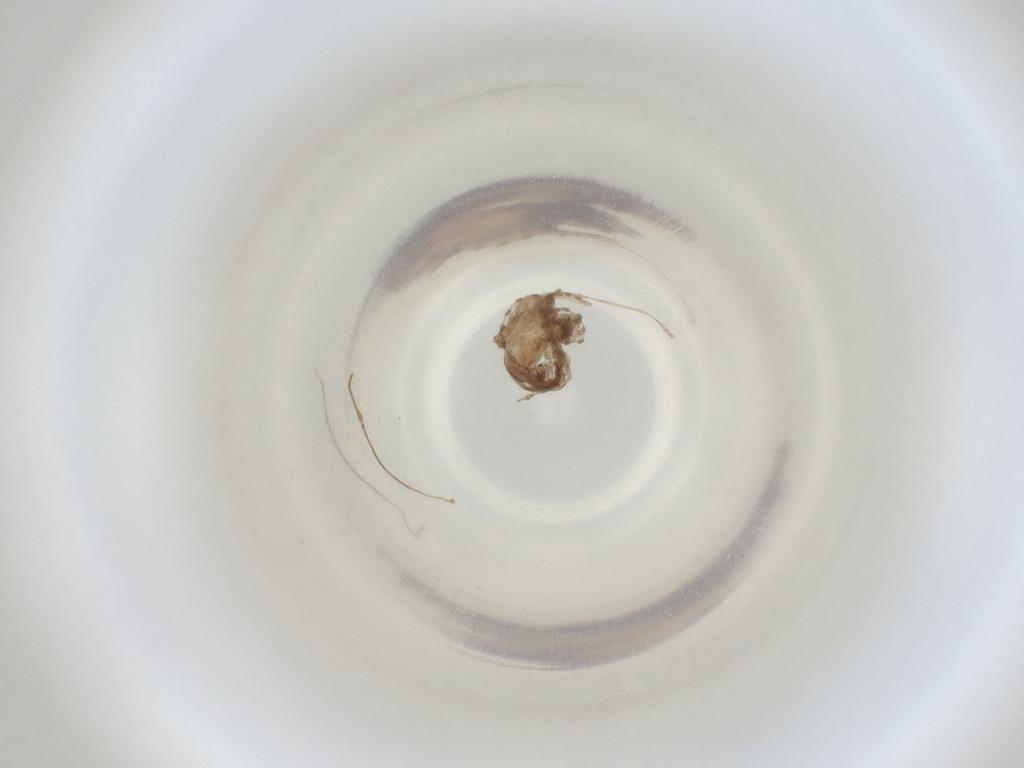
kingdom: Animalia
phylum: Arthropoda
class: Insecta
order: Diptera
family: Cecidomyiidae
